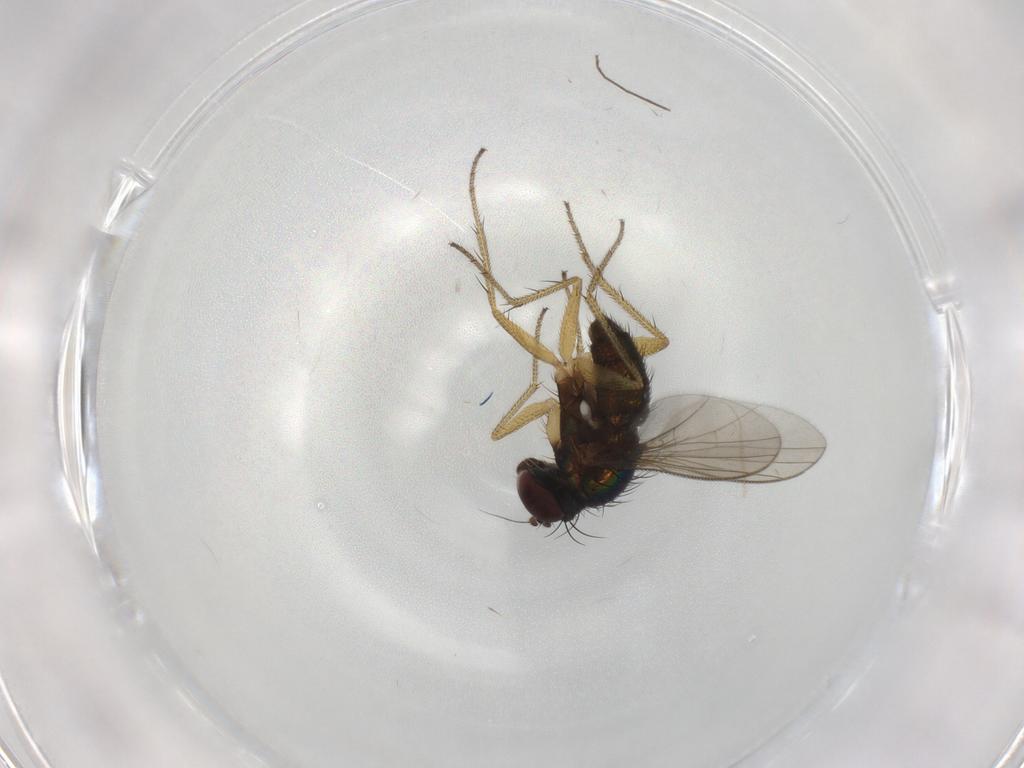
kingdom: Animalia
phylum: Arthropoda
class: Insecta
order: Diptera
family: Dolichopodidae
